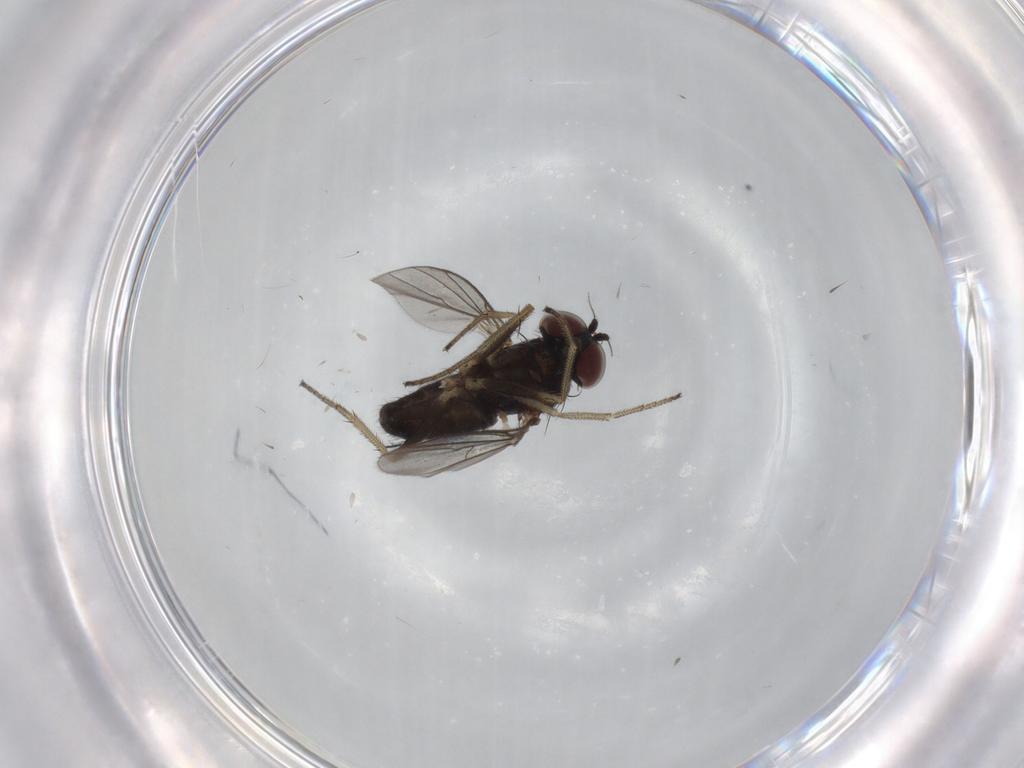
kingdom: Animalia
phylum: Arthropoda
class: Insecta
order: Diptera
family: Dolichopodidae
